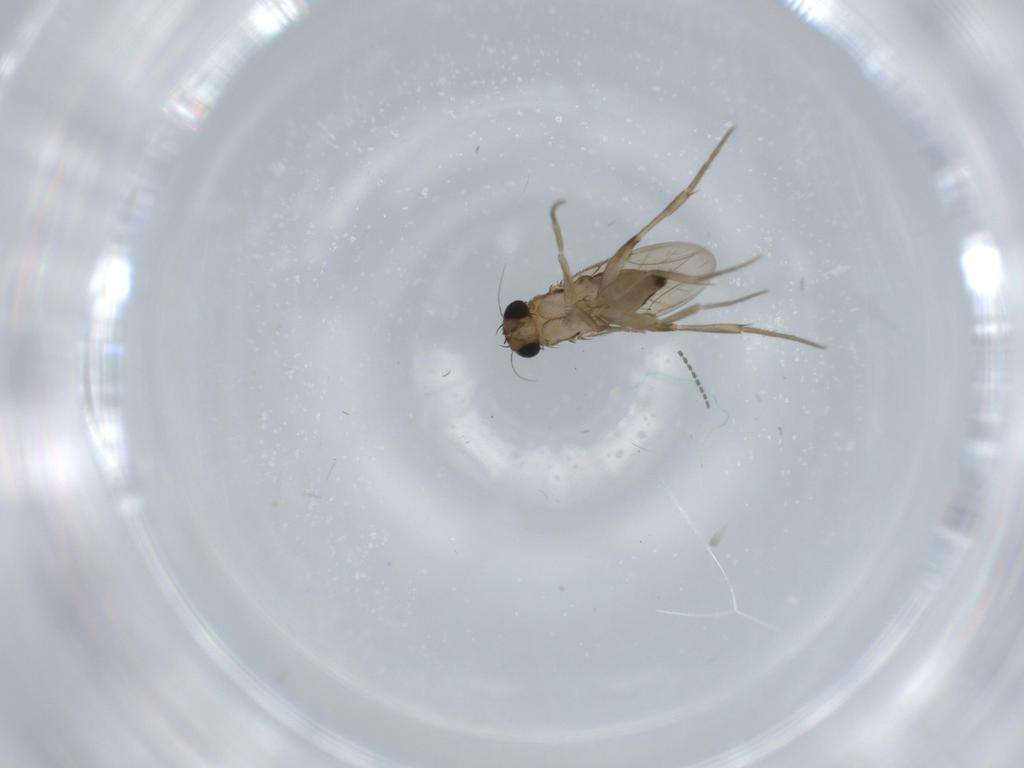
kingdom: Animalia
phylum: Arthropoda
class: Insecta
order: Diptera
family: Phoridae
